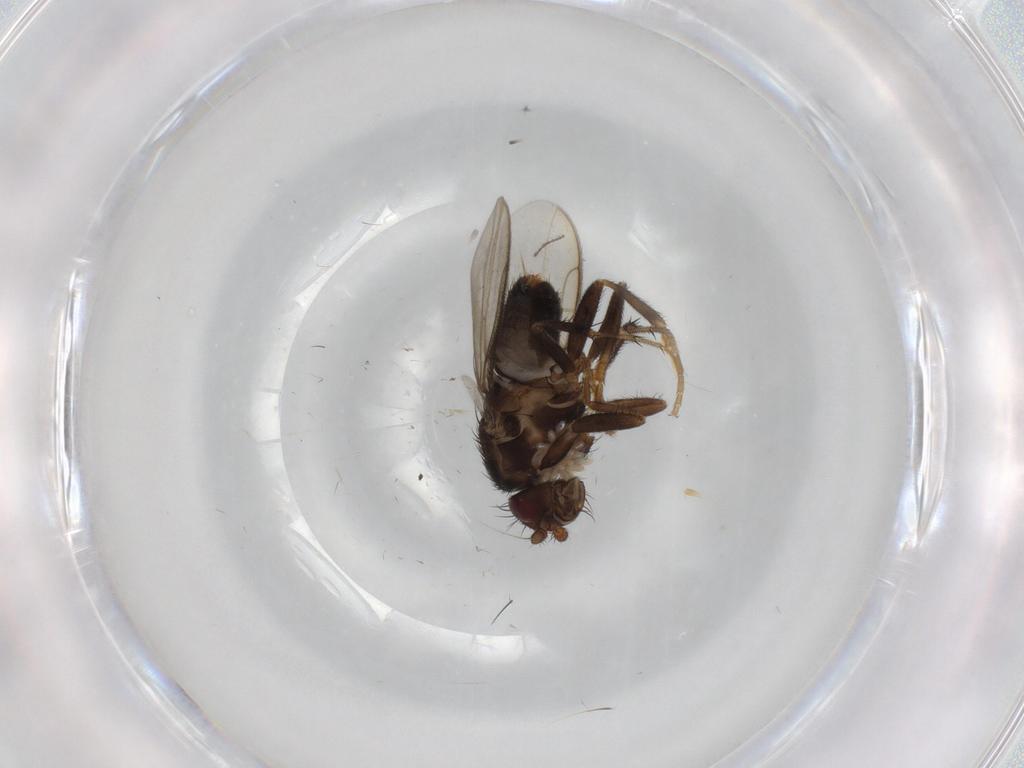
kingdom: Animalia
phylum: Arthropoda
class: Insecta
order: Diptera
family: Sphaeroceridae
